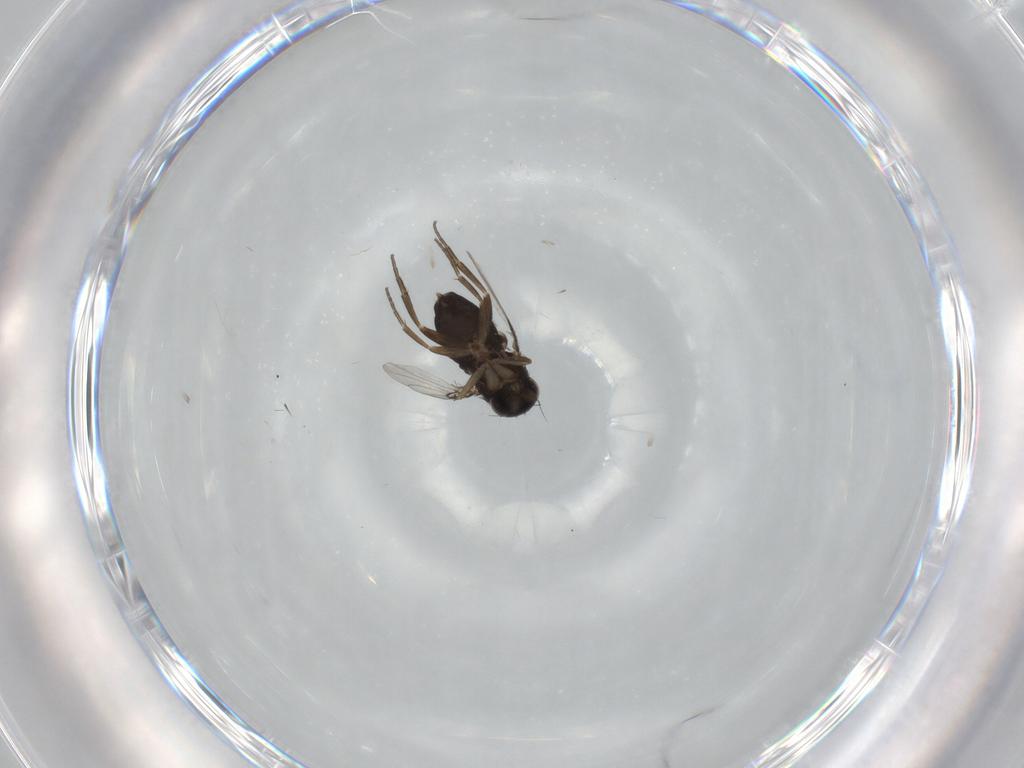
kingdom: Animalia
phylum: Arthropoda
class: Insecta
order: Diptera
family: Phoridae
